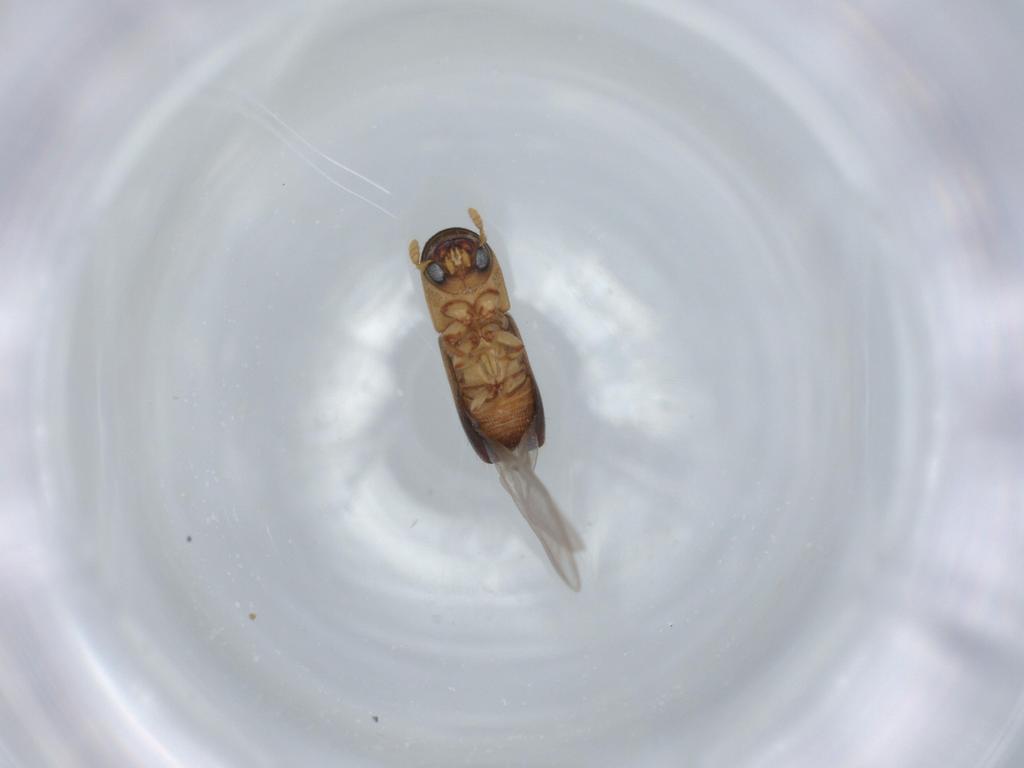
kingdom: Animalia
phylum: Arthropoda
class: Insecta
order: Coleoptera
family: Curculionidae
